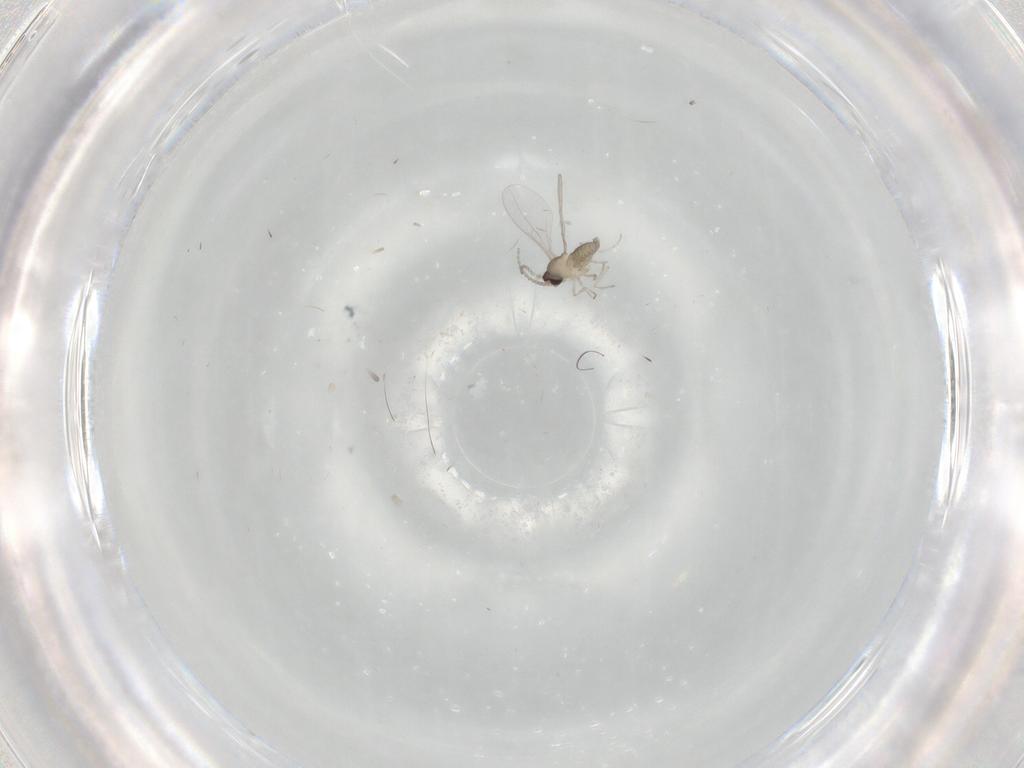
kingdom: Animalia
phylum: Arthropoda
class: Insecta
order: Diptera
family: Cecidomyiidae
